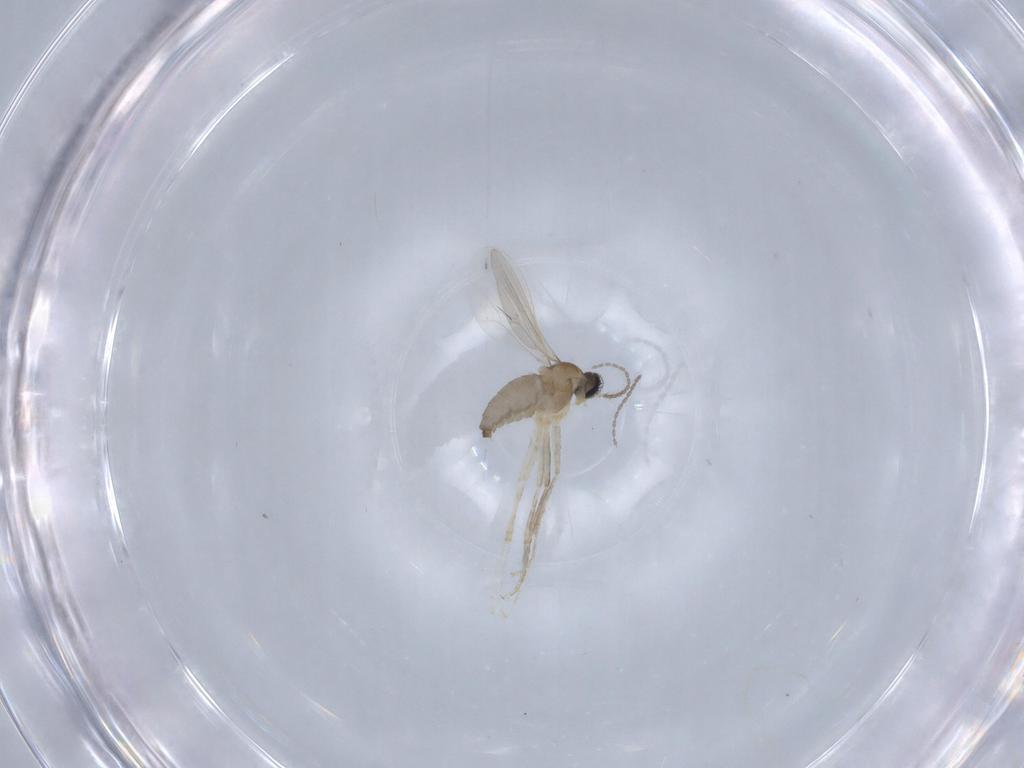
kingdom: Animalia
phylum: Arthropoda
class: Insecta
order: Diptera
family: Cecidomyiidae
